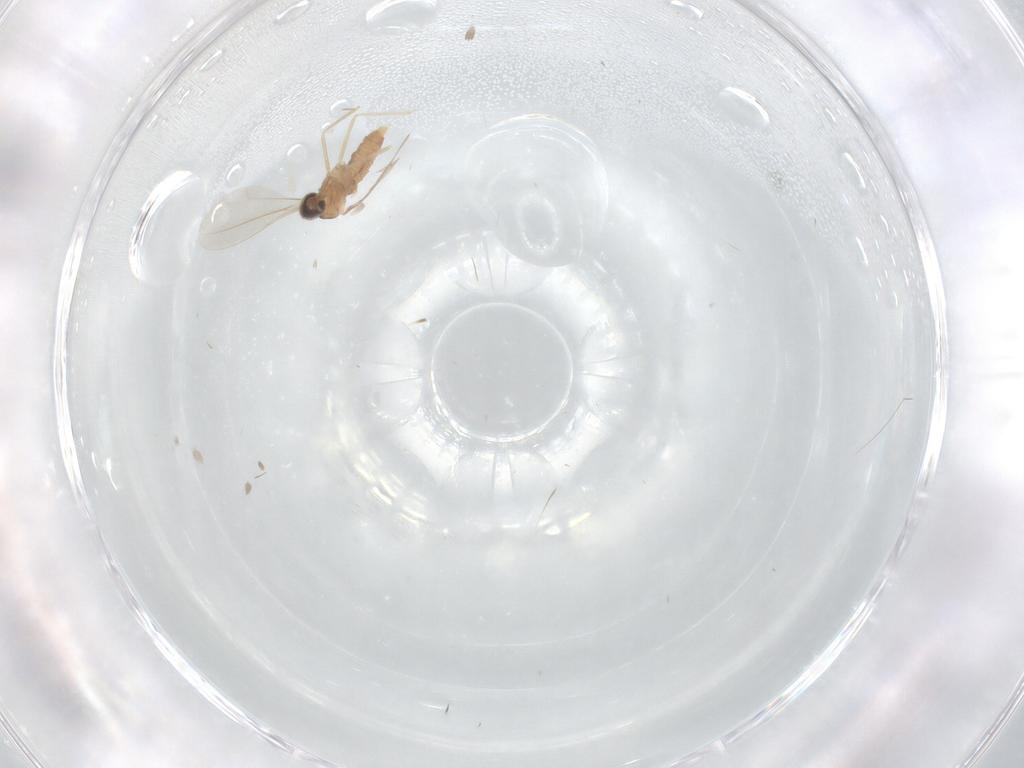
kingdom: Animalia
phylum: Arthropoda
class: Insecta
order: Diptera
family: Cecidomyiidae
